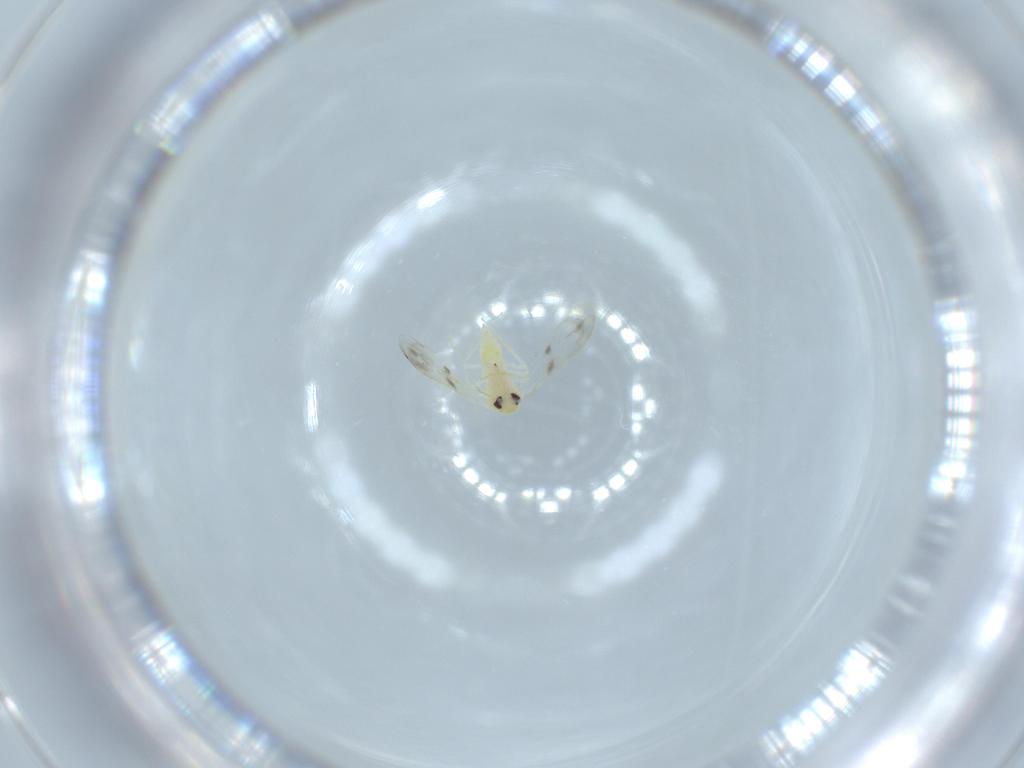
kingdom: Animalia
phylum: Arthropoda
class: Insecta
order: Hemiptera
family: Aleyrodidae
